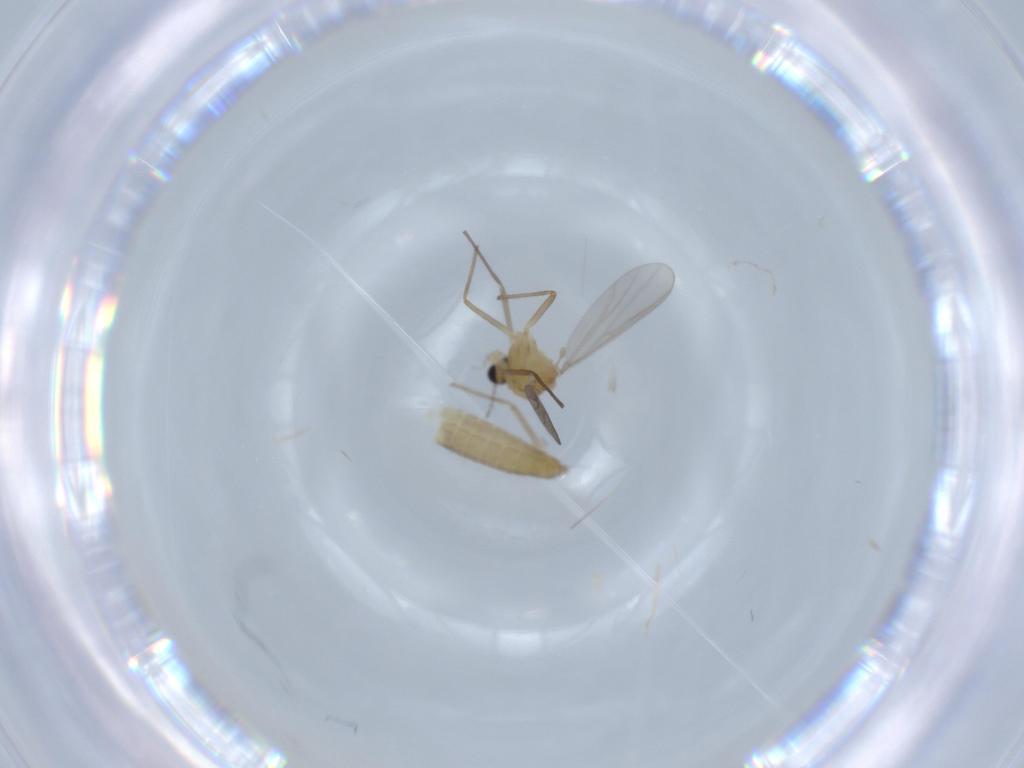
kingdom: Animalia
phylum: Arthropoda
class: Insecta
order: Diptera
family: Chironomidae
